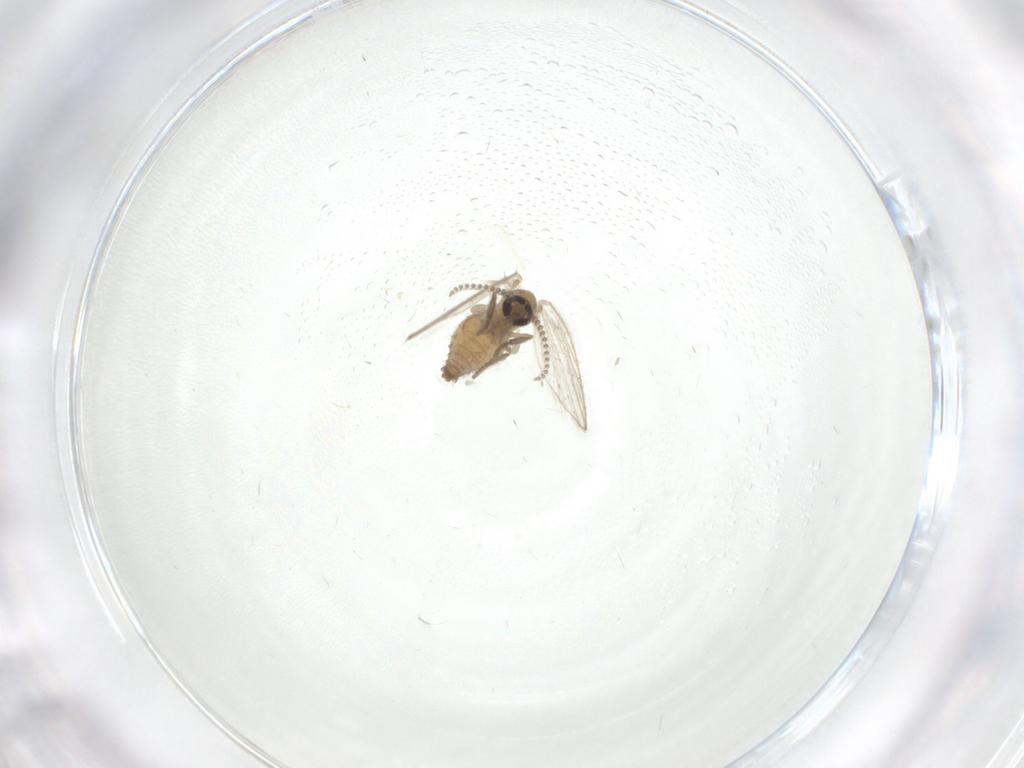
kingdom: Animalia
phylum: Arthropoda
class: Insecta
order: Diptera
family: Psychodidae
